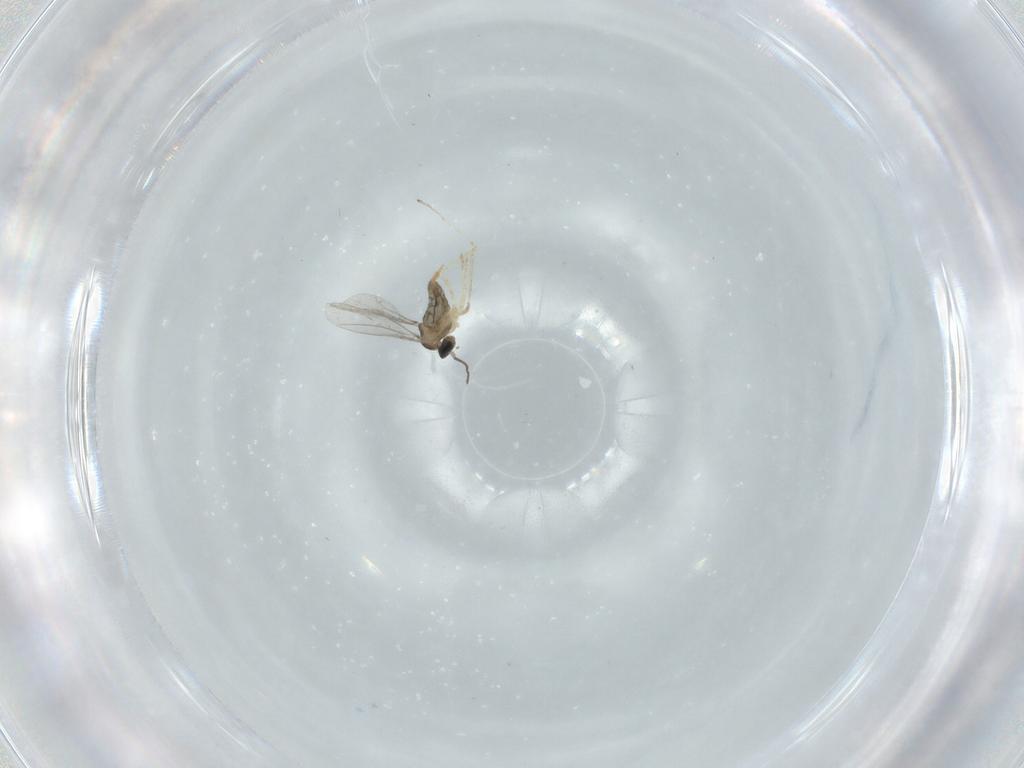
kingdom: Animalia
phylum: Arthropoda
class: Insecta
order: Diptera
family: Cecidomyiidae
